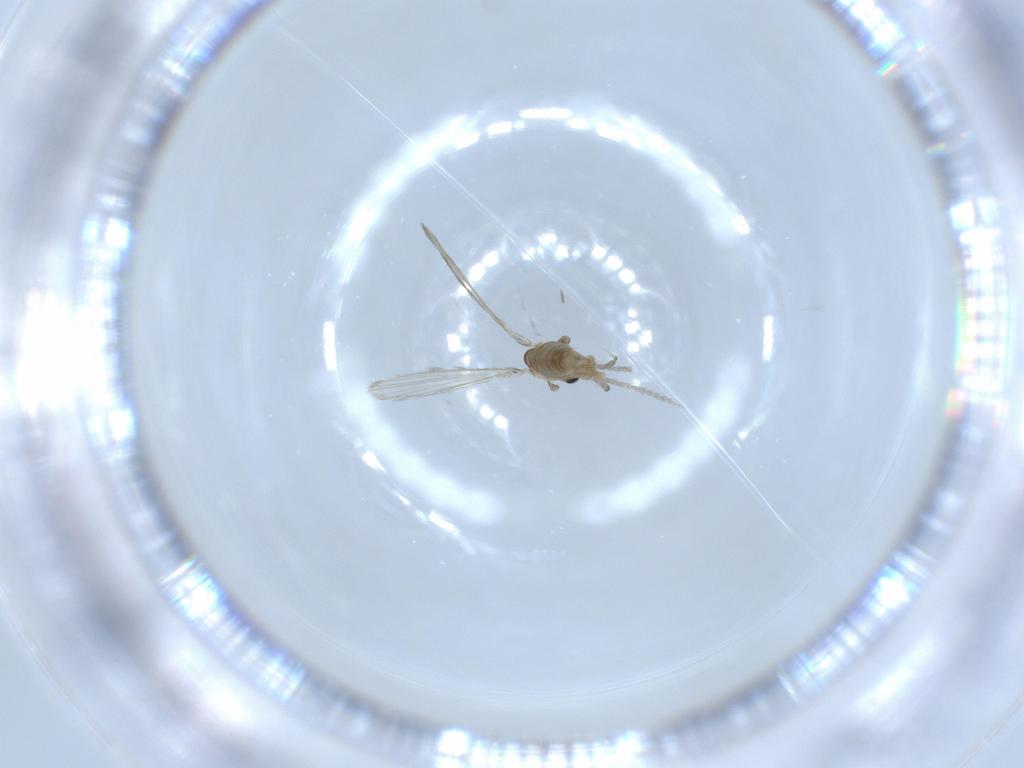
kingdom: Animalia
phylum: Arthropoda
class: Insecta
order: Diptera
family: Psychodidae
